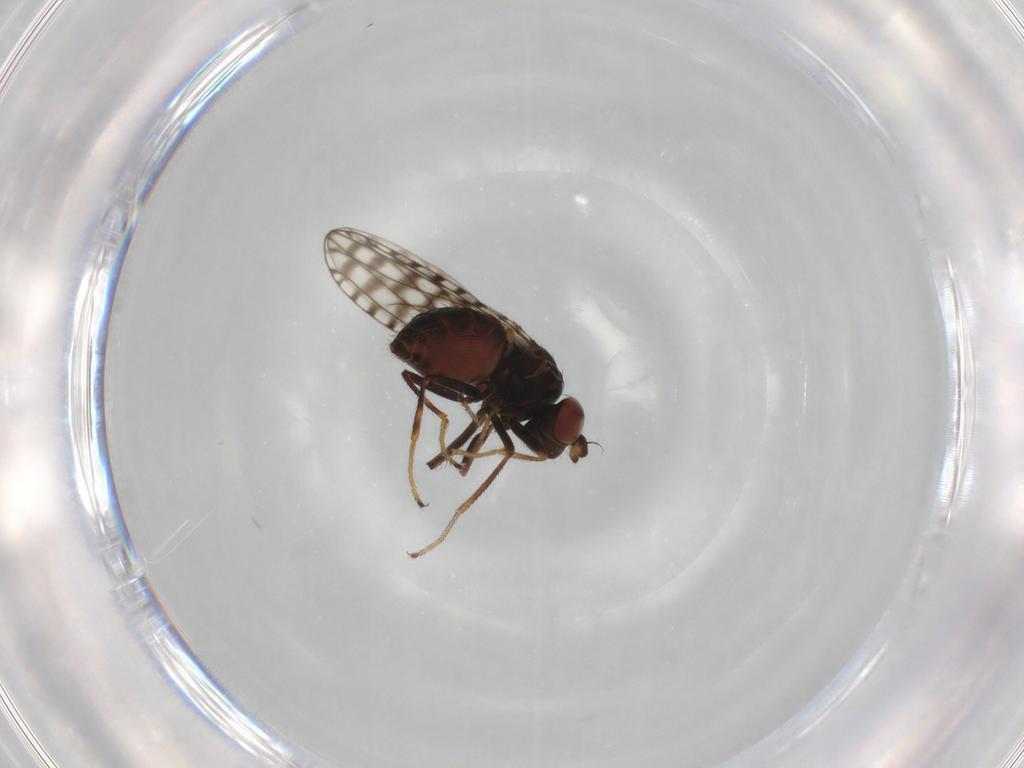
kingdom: Animalia
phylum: Arthropoda
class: Insecta
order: Diptera
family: Ephydridae
